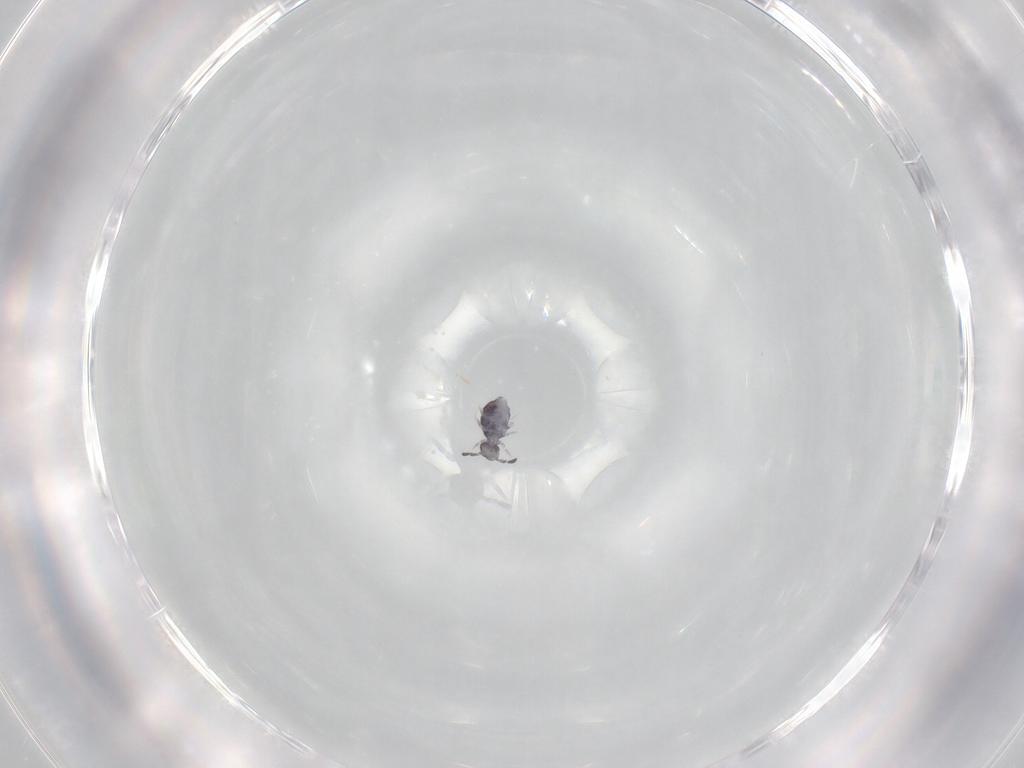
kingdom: Animalia
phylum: Arthropoda
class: Collembola
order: Symphypleona
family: Katiannidae
